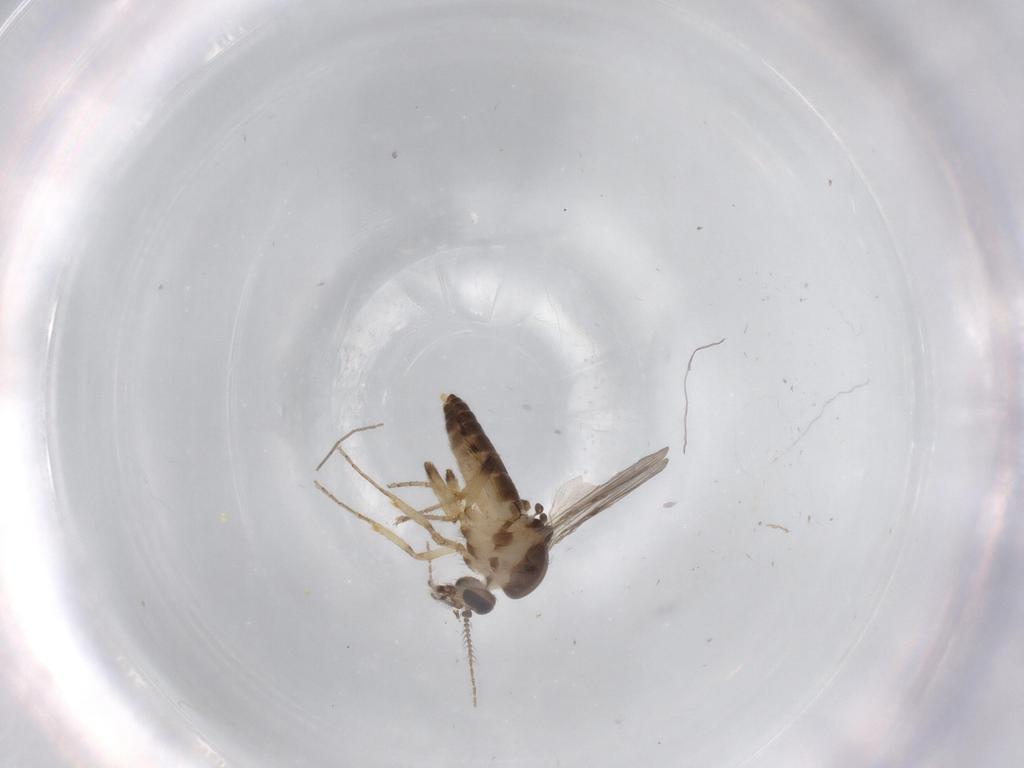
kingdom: Animalia
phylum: Arthropoda
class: Insecta
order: Diptera
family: Ceratopogonidae
